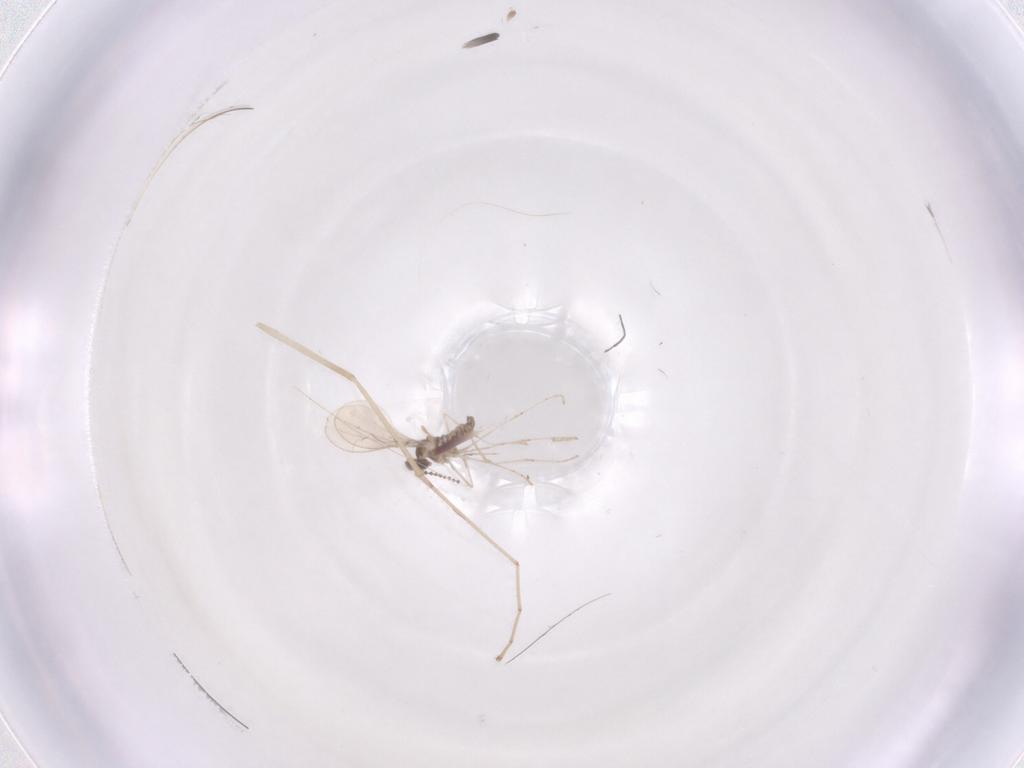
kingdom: Animalia
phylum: Arthropoda
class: Insecta
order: Diptera
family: Cecidomyiidae
